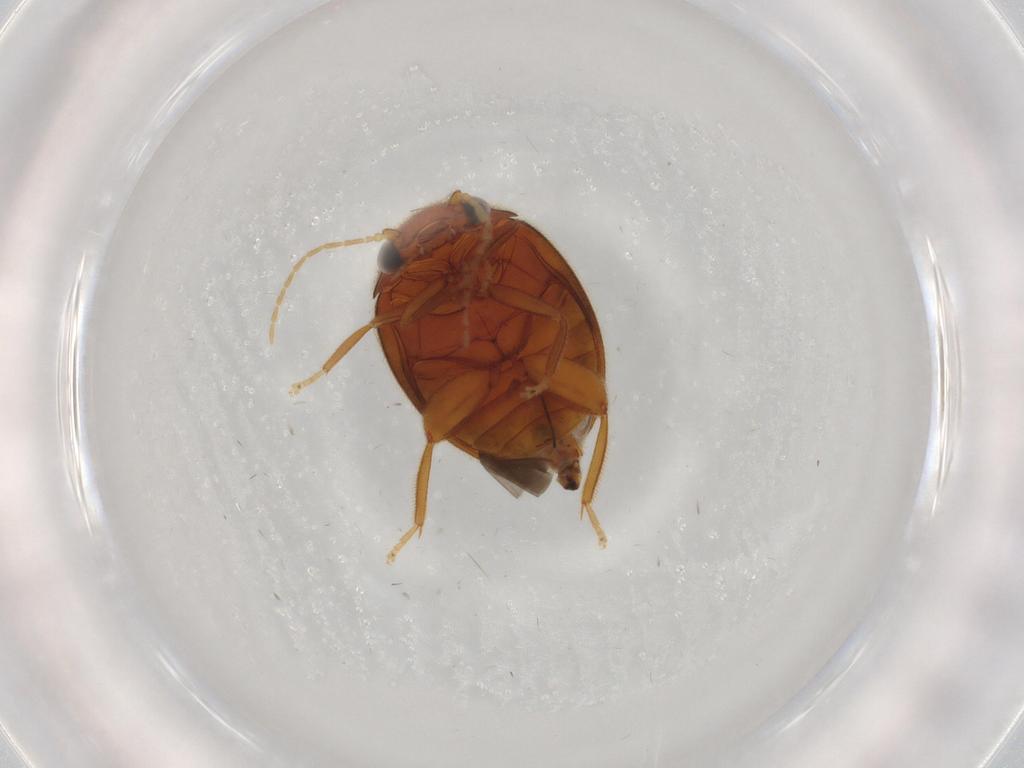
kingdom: Animalia
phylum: Arthropoda
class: Insecta
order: Coleoptera
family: Scirtidae
